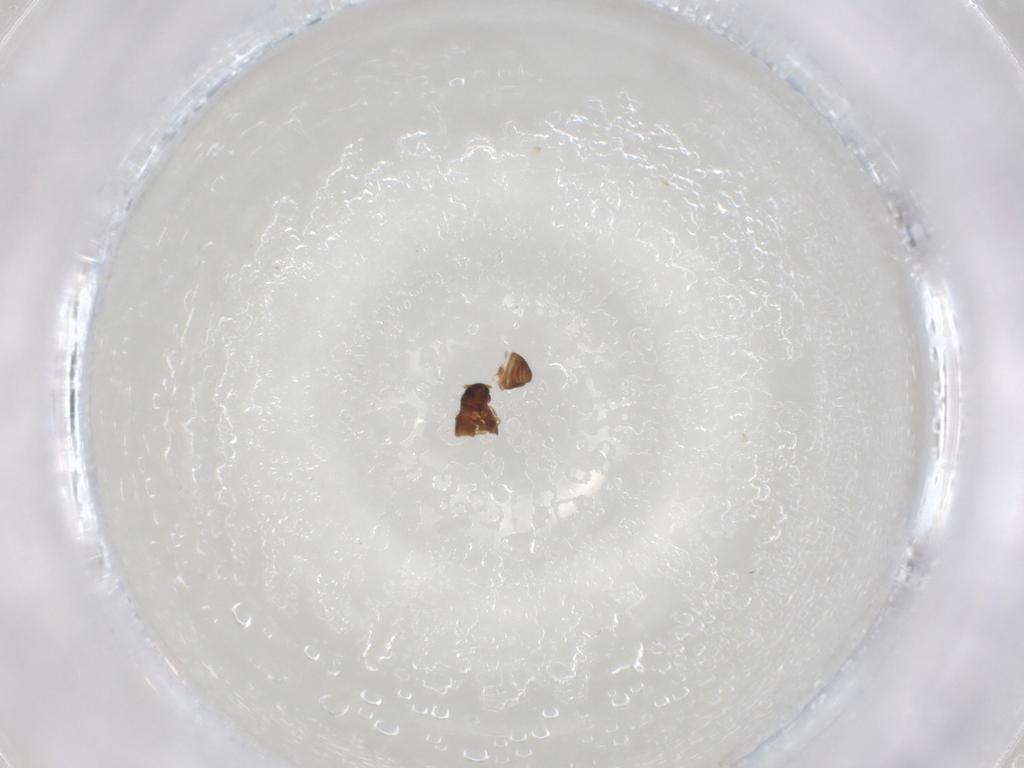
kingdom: Animalia
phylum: Arthropoda
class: Insecta
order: Coleoptera
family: Ptiliidae
